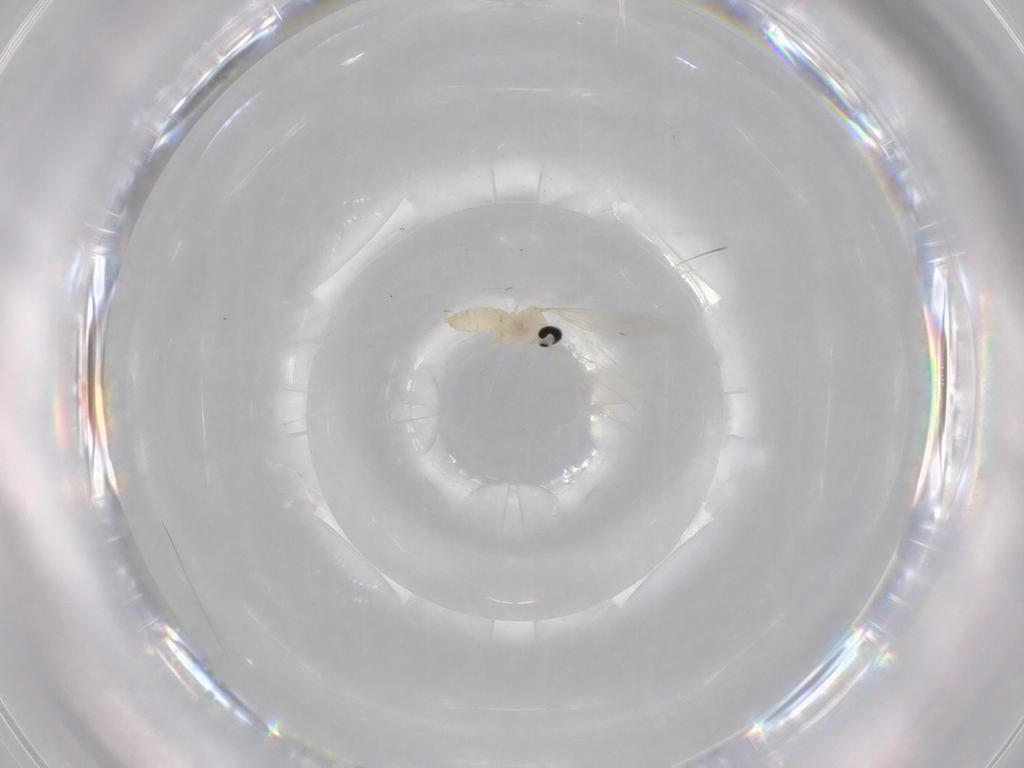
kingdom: Animalia
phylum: Arthropoda
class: Insecta
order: Diptera
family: Cecidomyiidae
